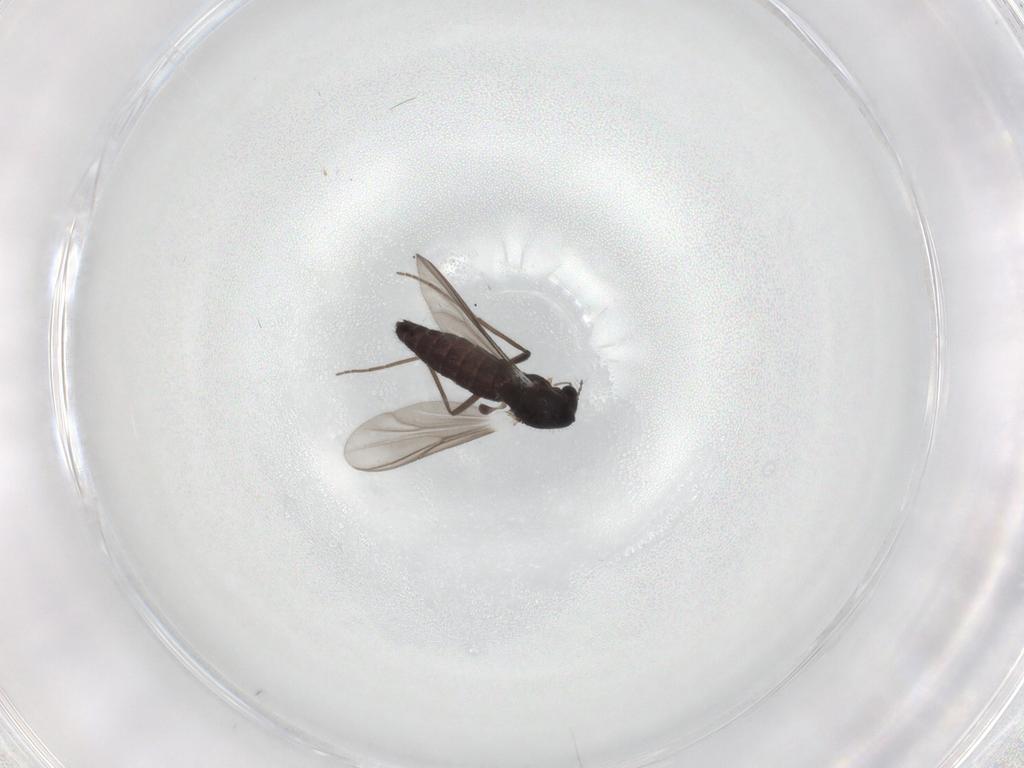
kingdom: Animalia
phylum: Arthropoda
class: Insecta
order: Diptera
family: Chironomidae
